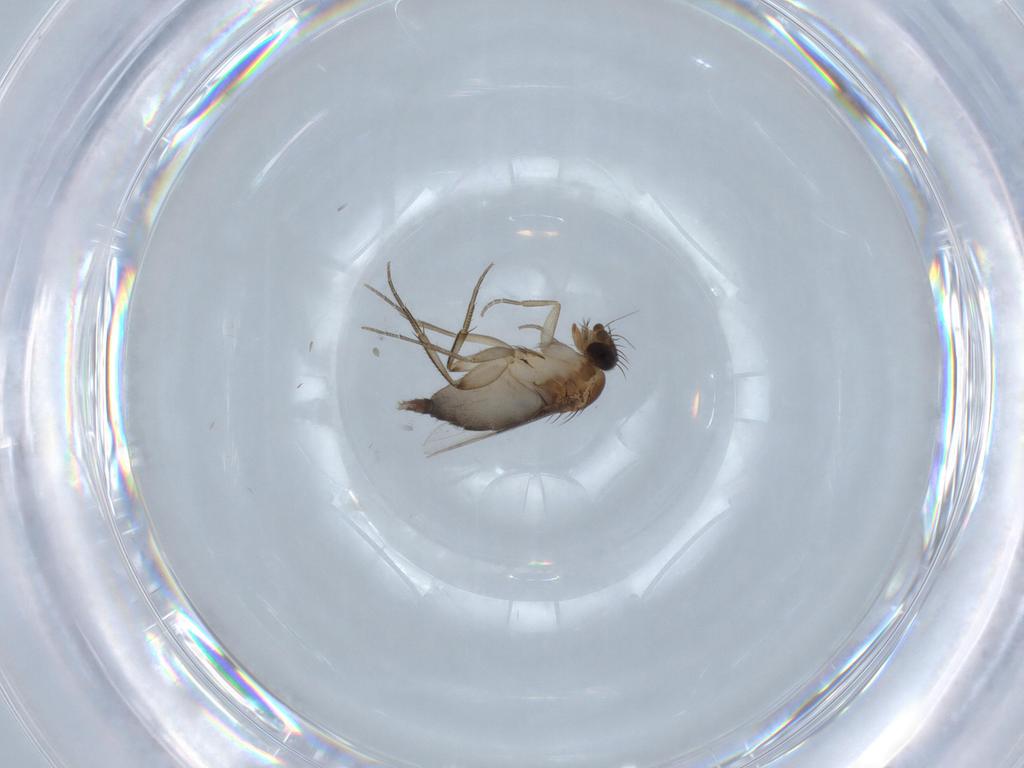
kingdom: Animalia
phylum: Arthropoda
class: Insecta
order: Diptera
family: Phoridae
